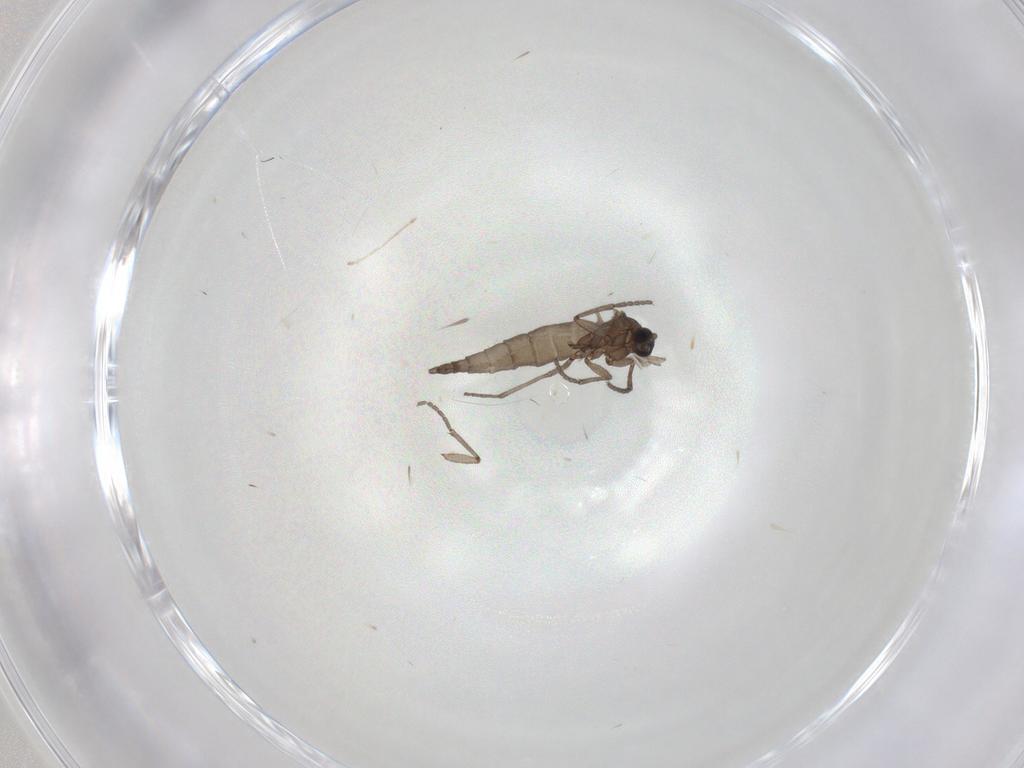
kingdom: Animalia
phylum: Arthropoda
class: Insecta
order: Diptera
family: Sciaridae
